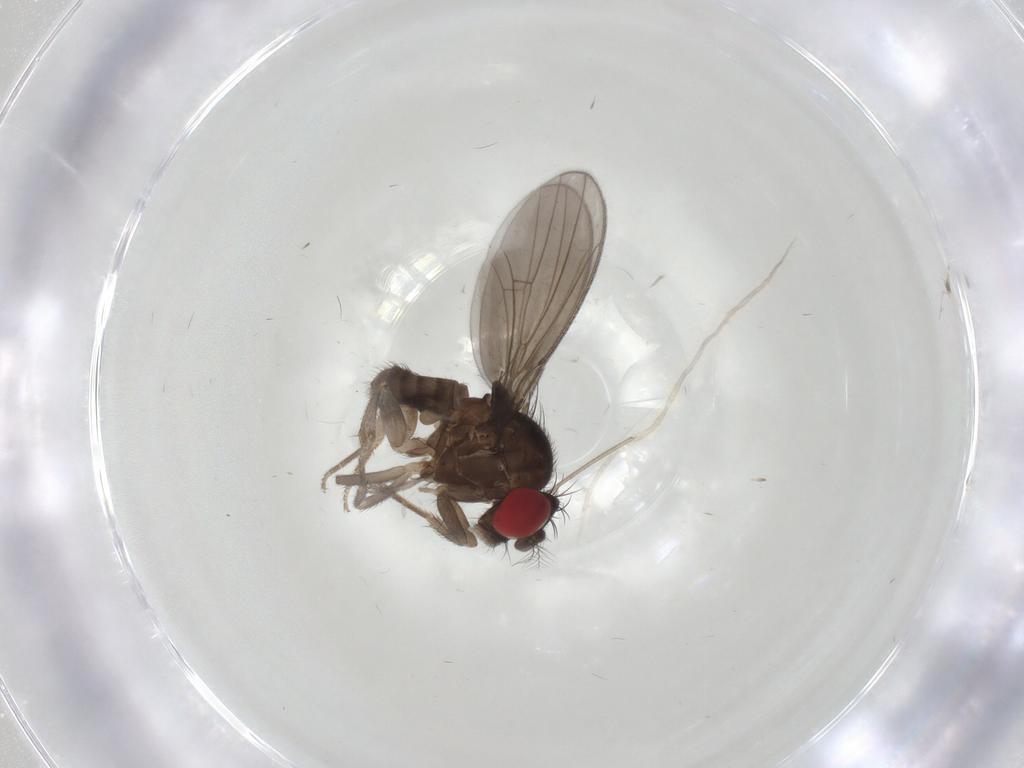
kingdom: Animalia
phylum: Arthropoda
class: Insecta
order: Diptera
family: Drosophilidae
